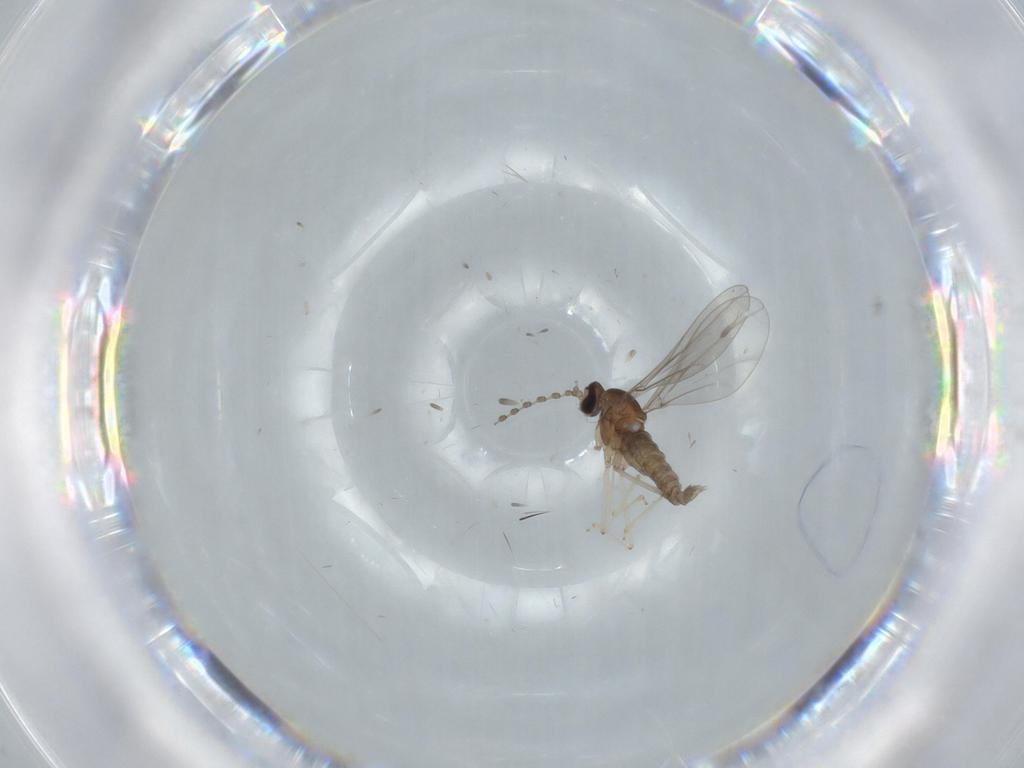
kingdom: Animalia
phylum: Arthropoda
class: Insecta
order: Diptera
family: Cecidomyiidae
